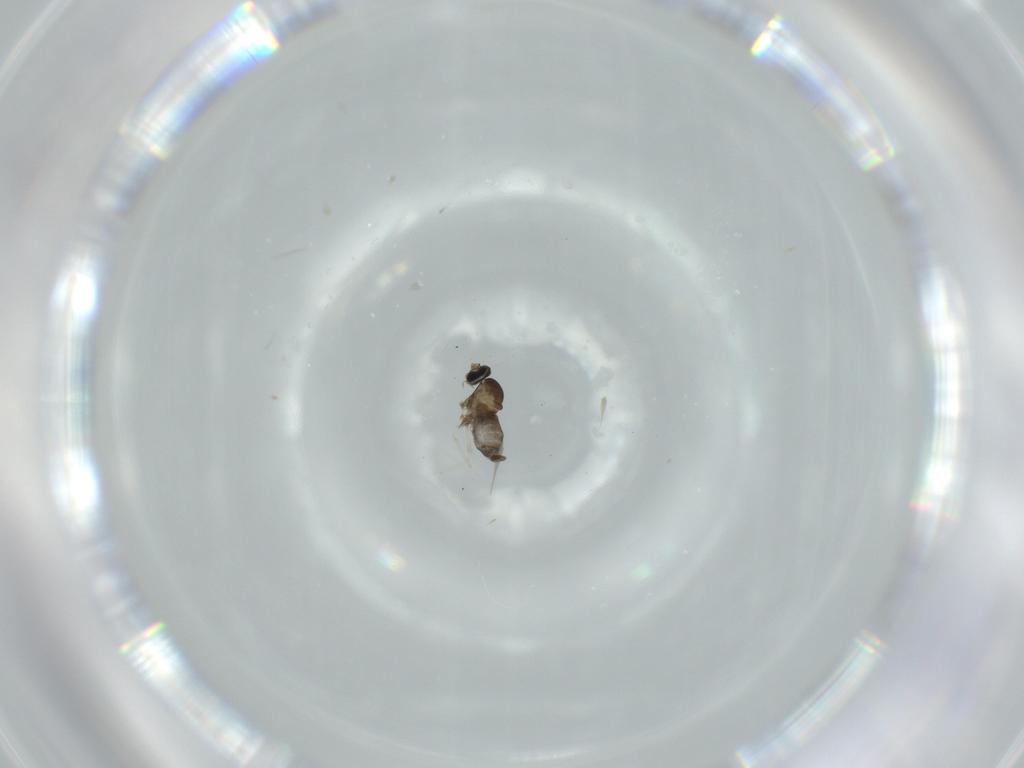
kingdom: Animalia
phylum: Arthropoda
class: Insecta
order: Diptera
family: Cecidomyiidae
